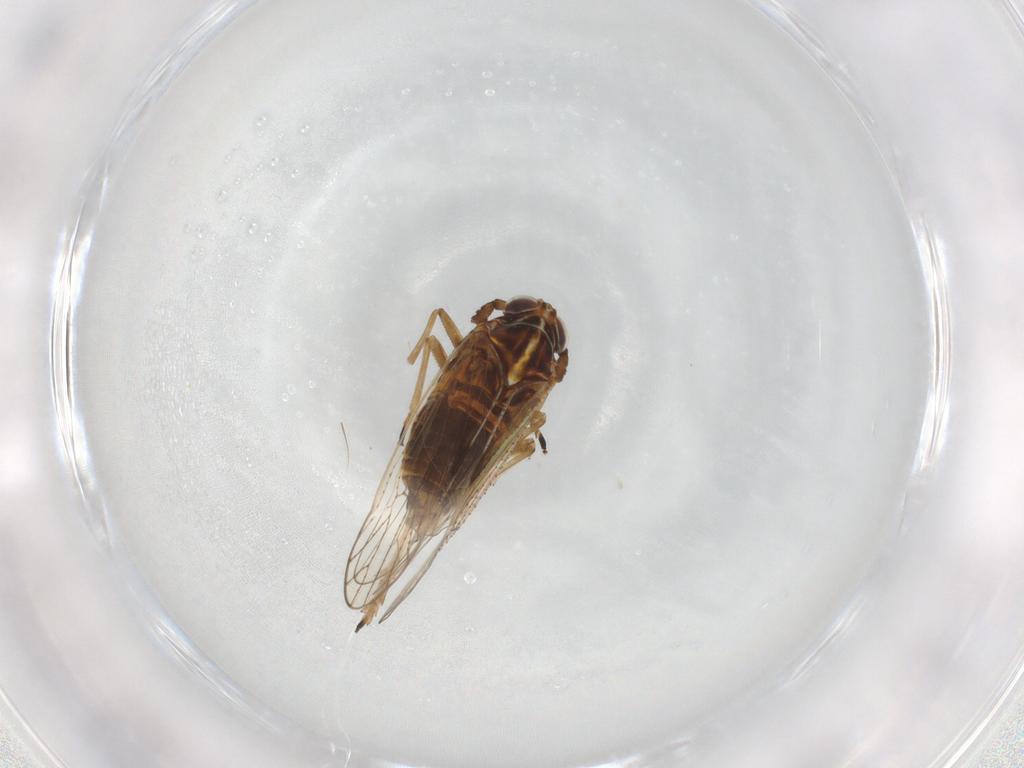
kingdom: Animalia
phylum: Arthropoda
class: Insecta
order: Hemiptera
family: Delphacidae
